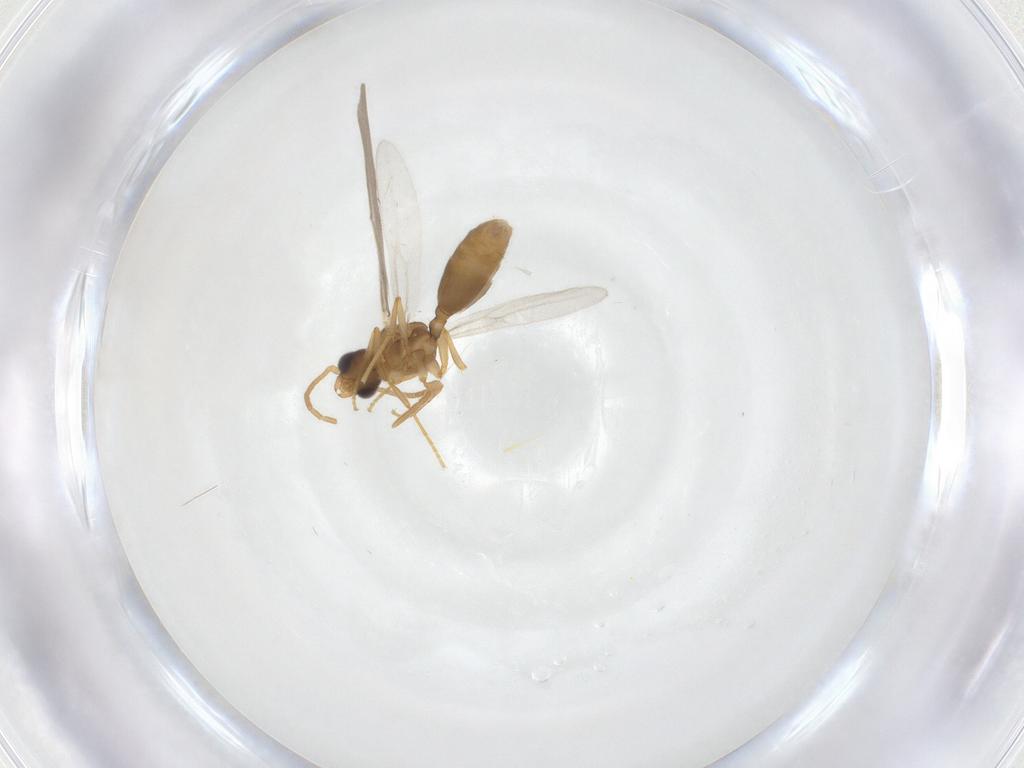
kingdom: Animalia
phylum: Arthropoda
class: Insecta
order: Hymenoptera
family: Formicidae
